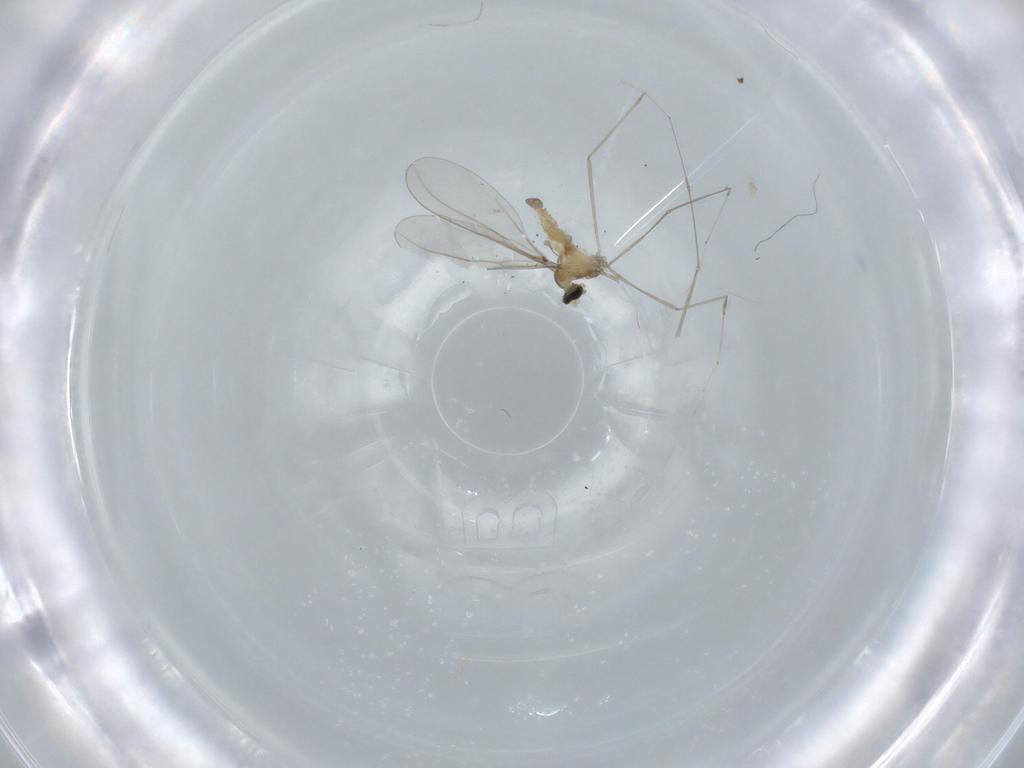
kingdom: Animalia
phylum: Arthropoda
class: Insecta
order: Diptera
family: Cecidomyiidae
